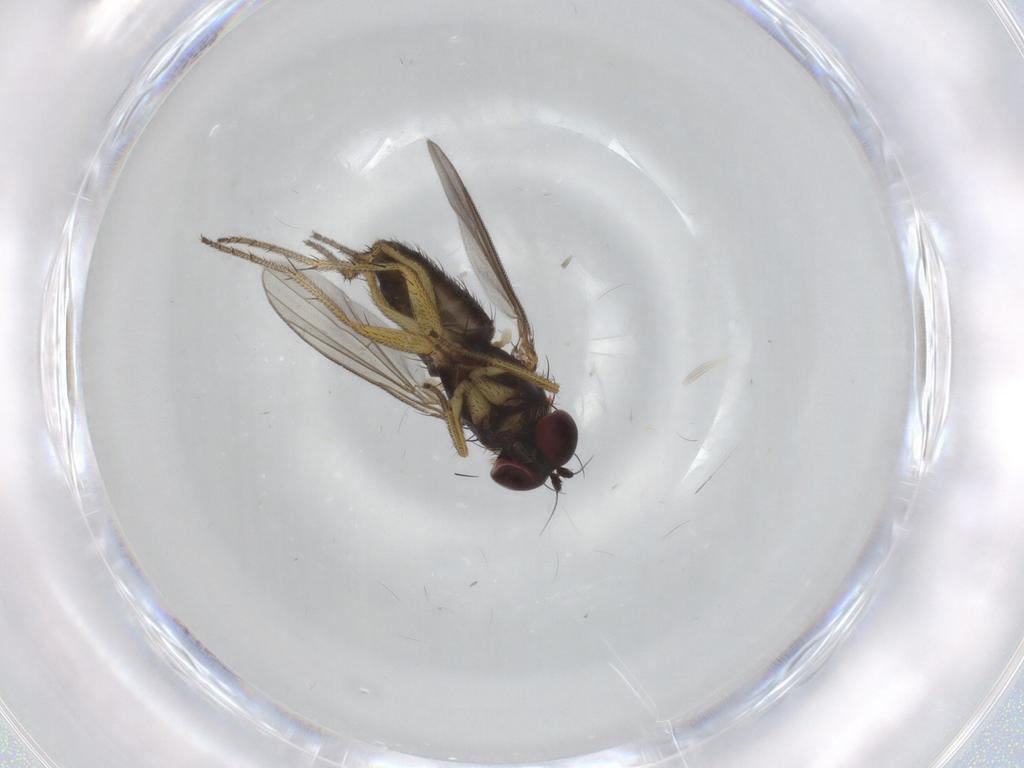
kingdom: Animalia
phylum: Arthropoda
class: Insecta
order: Diptera
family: Dolichopodidae
